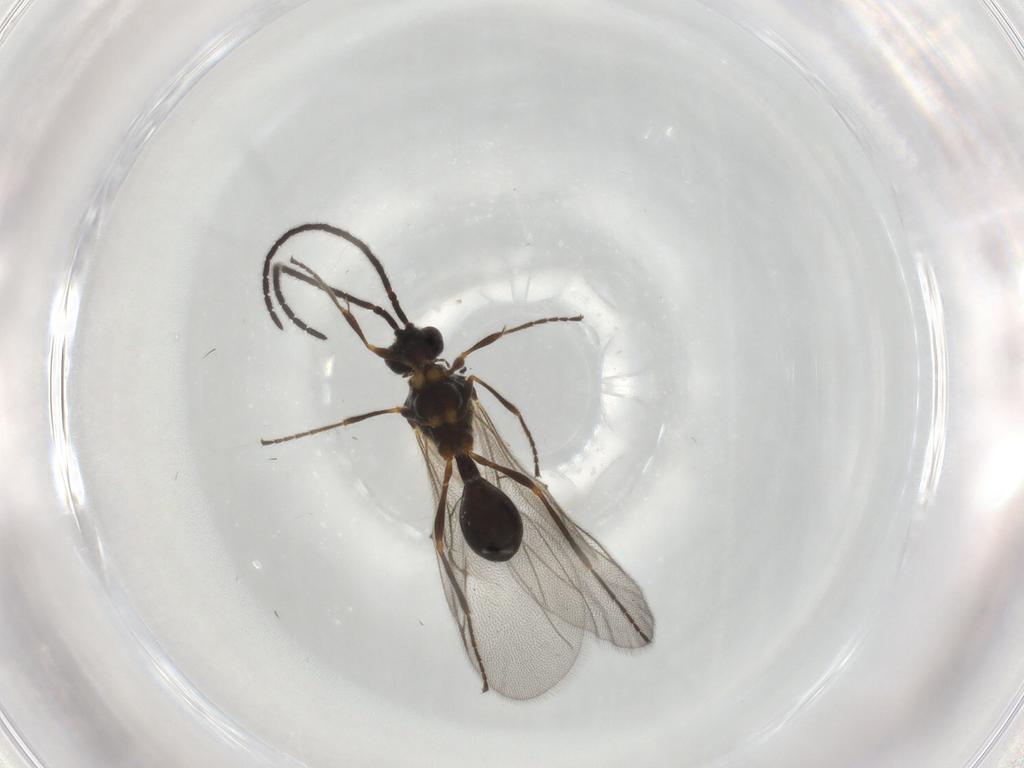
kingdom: Animalia
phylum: Arthropoda
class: Insecta
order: Hymenoptera
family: Diapriidae
